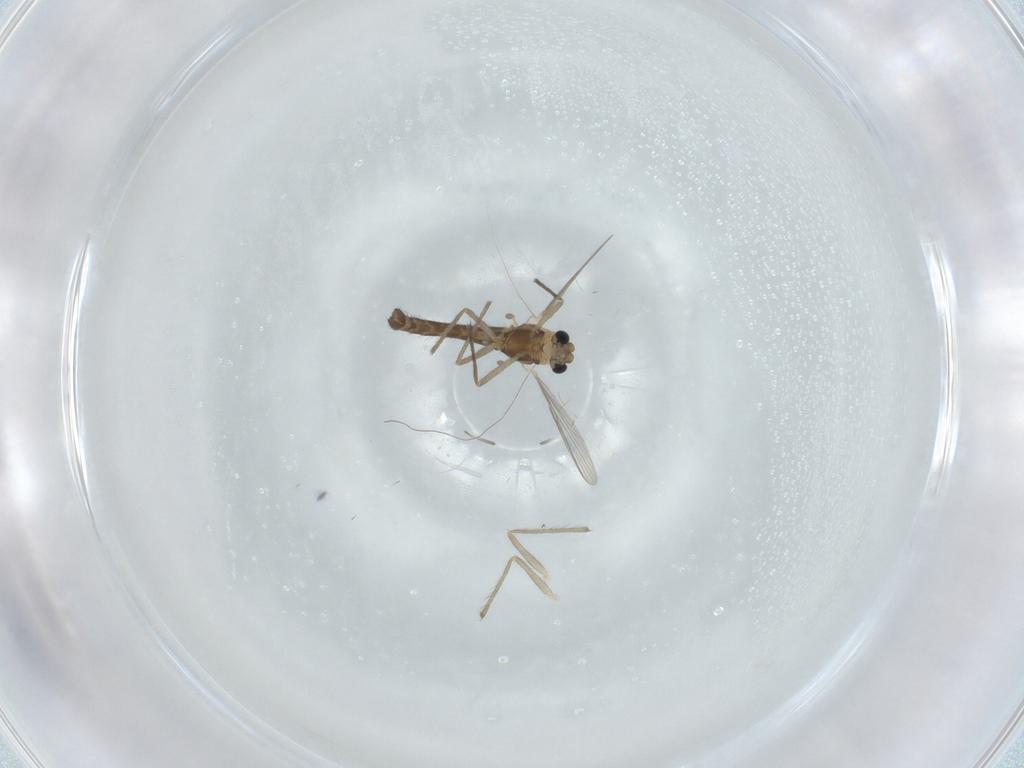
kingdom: Animalia
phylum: Arthropoda
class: Insecta
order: Diptera
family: Chironomidae
